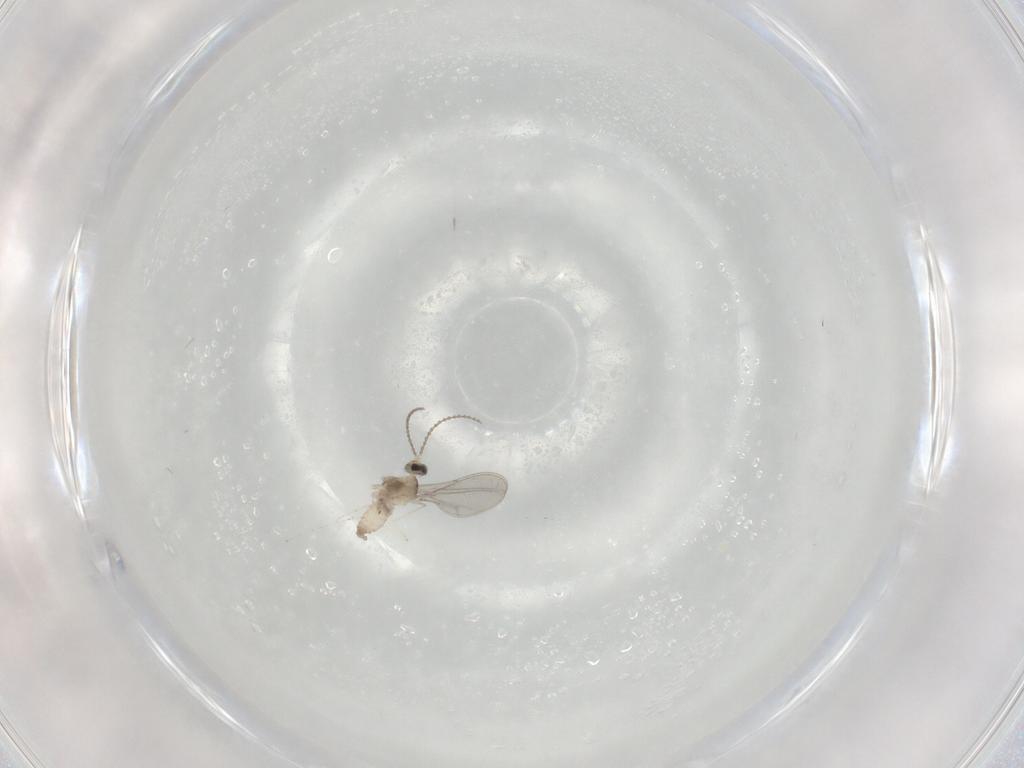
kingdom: Animalia
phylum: Arthropoda
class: Insecta
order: Diptera
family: Cecidomyiidae
